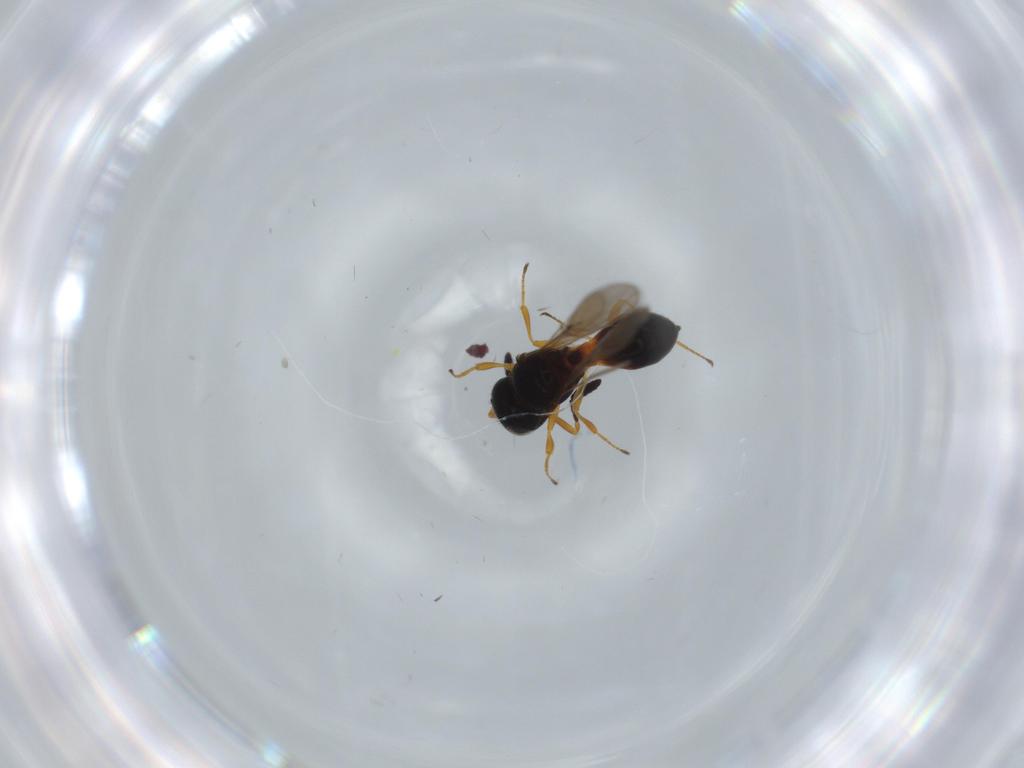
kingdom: Animalia
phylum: Arthropoda
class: Insecta
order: Hymenoptera
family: Scelionidae
